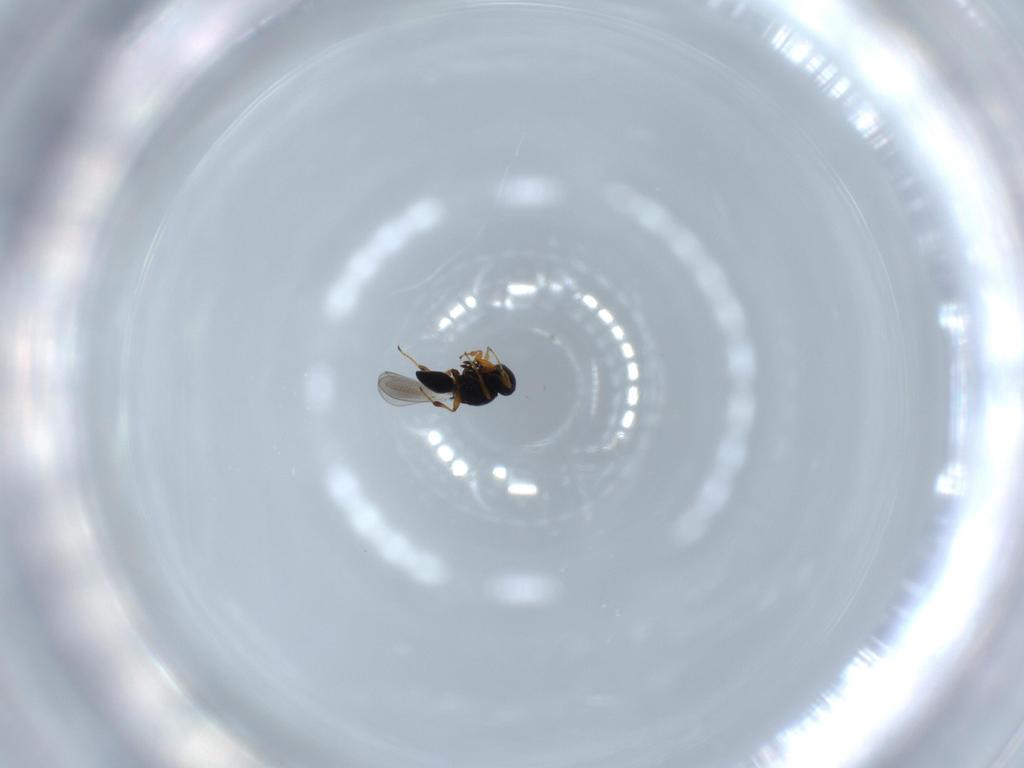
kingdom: Animalia
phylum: Arthropoda
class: Insecta
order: Hymenoptera
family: Platygastridae
